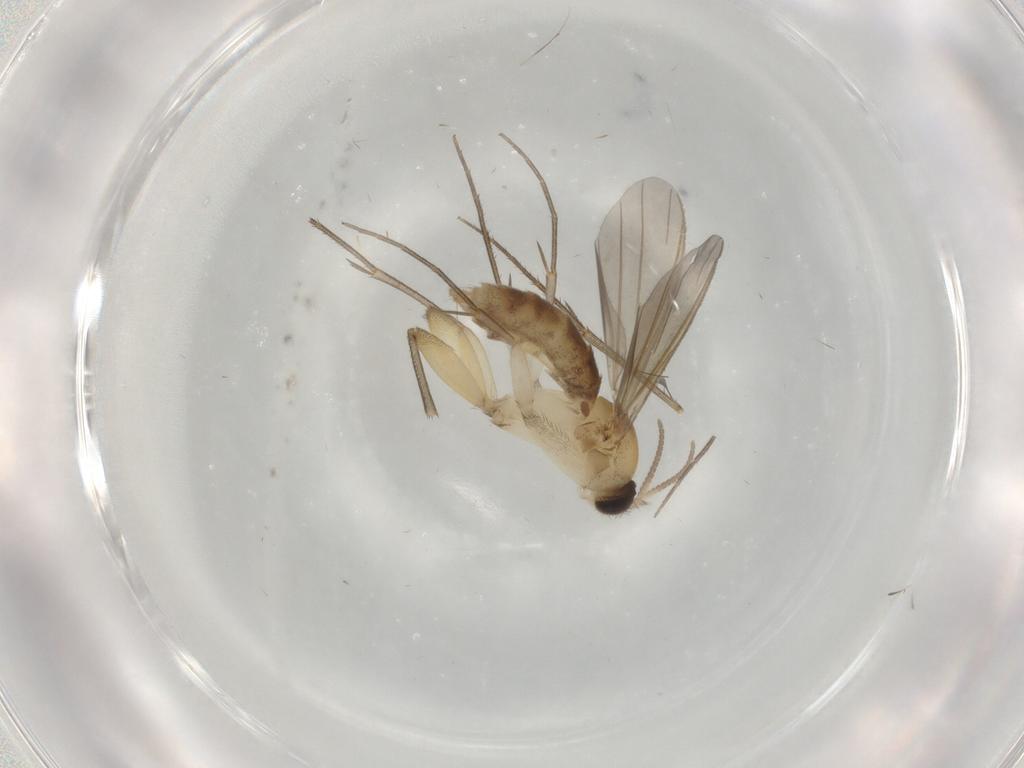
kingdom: Animalia
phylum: Arthropoda
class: Insecta
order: Diptera
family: Mycetophilidae
